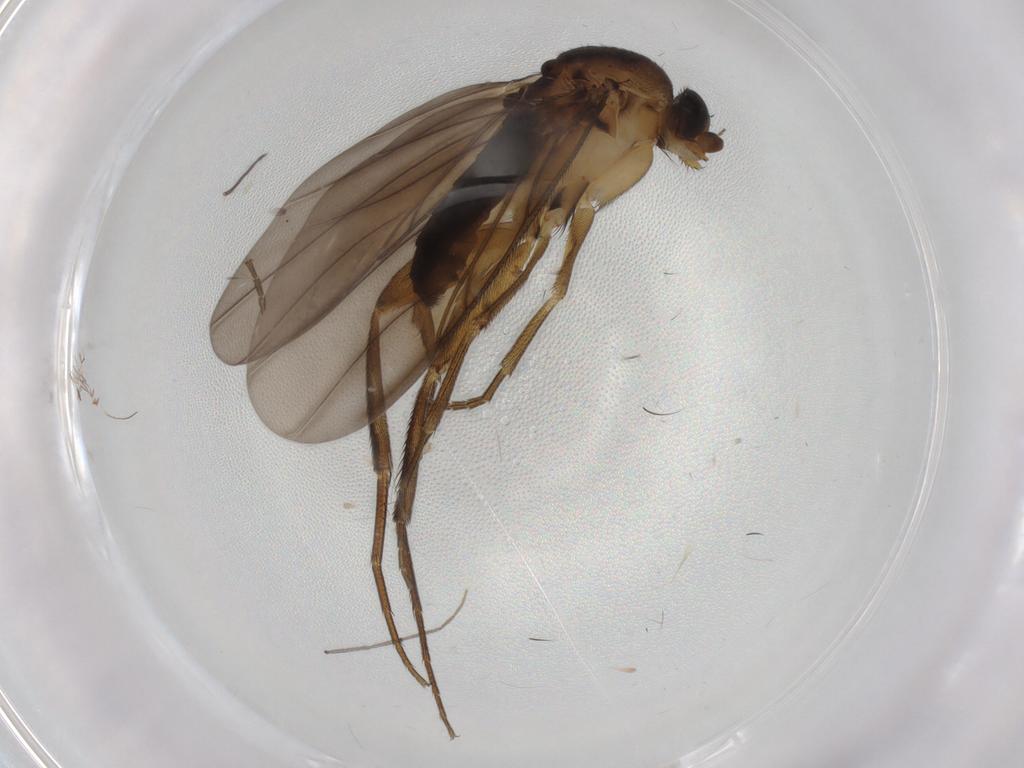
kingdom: Animalia
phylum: Arthropoda
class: Insecta
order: Diptera
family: Phoridae
